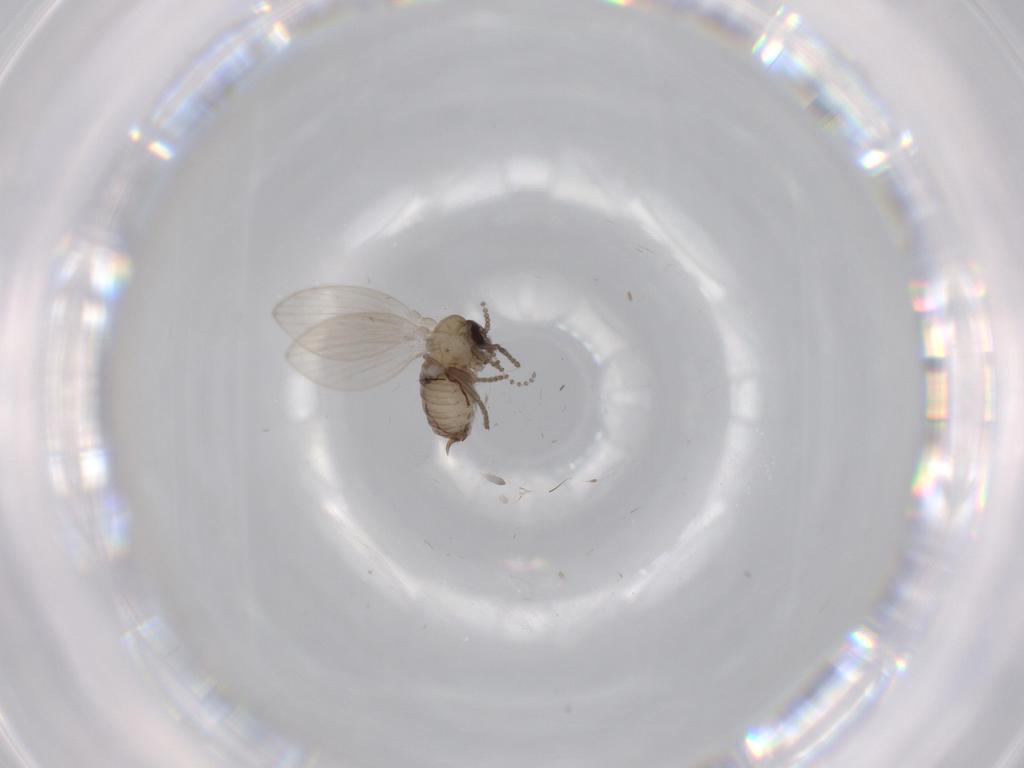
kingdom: Animalia
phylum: Arthropoda
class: Insecta
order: Diptera
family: Psychodidae
